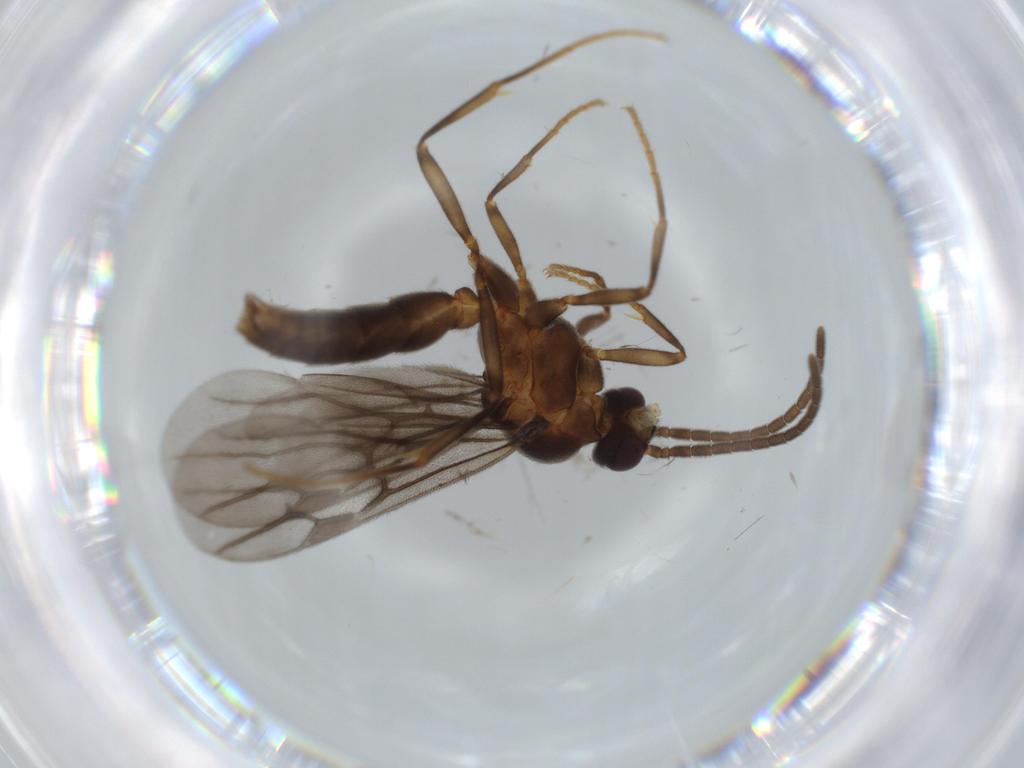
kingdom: Animalia
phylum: Arthropoda
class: Insecta
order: Hymenoptera
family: Formicidae
